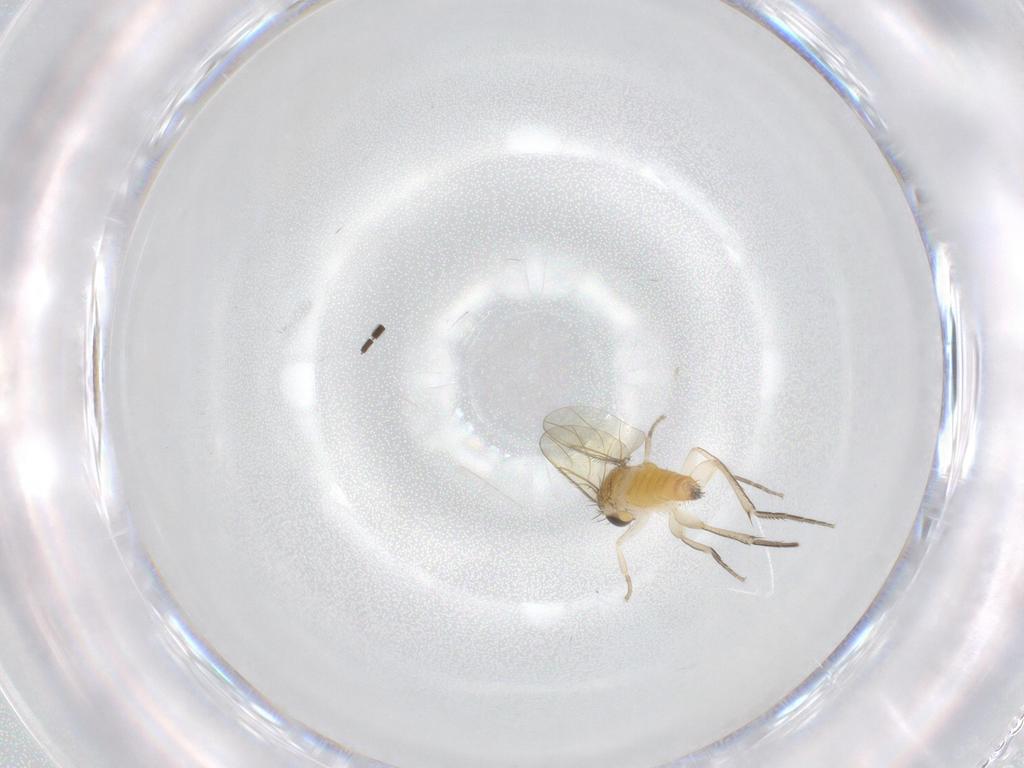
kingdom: Animalia
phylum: Arthropoda
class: Insecta
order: Diptera
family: Phoridae
